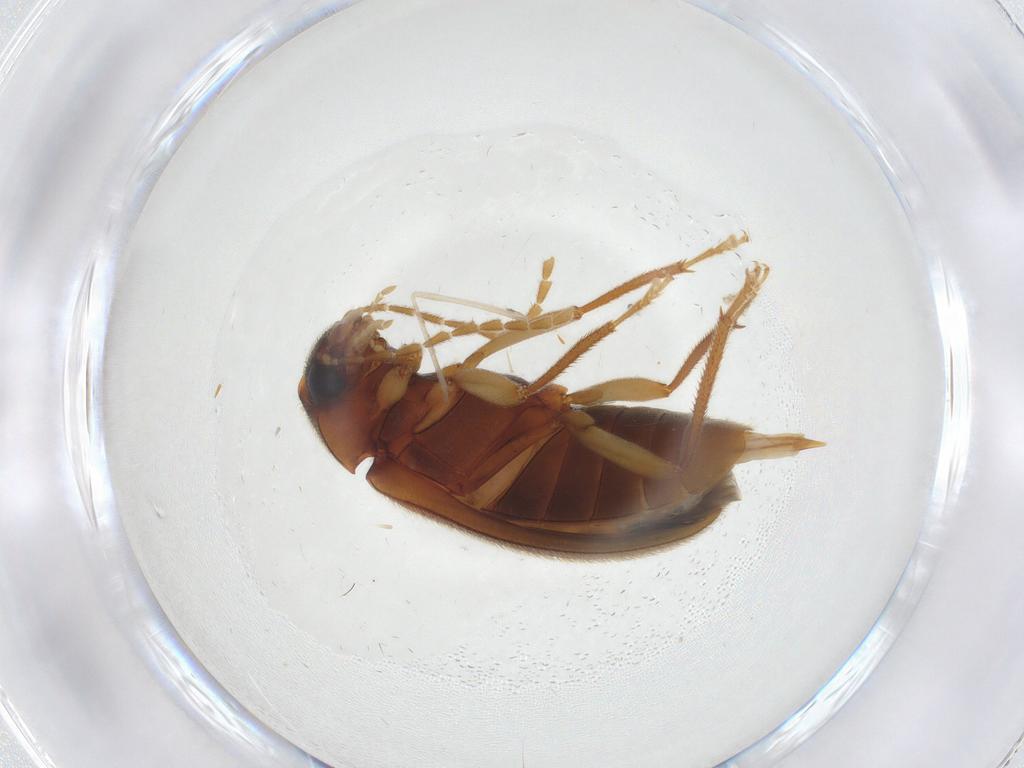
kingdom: Animalia
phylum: Arthropoda
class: Insecta
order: Coleoptera
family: Ptilodactylidae
